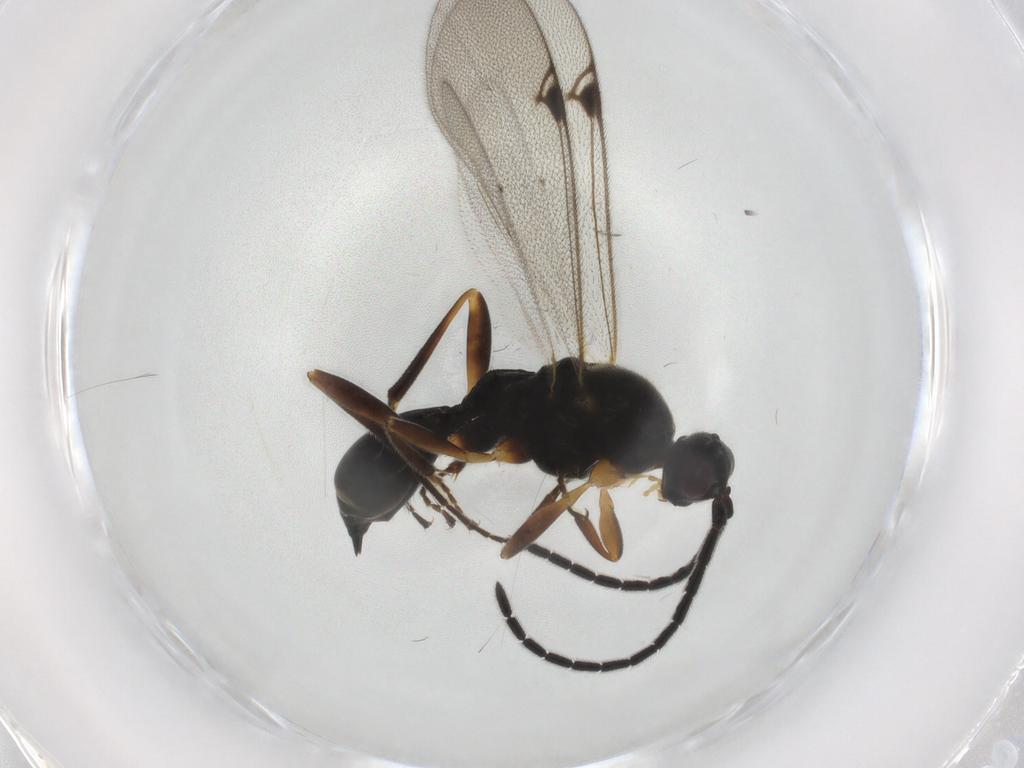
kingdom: Animalia
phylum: Arthropoda
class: Insecta
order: Hymenoptera
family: Proctotrupidae
